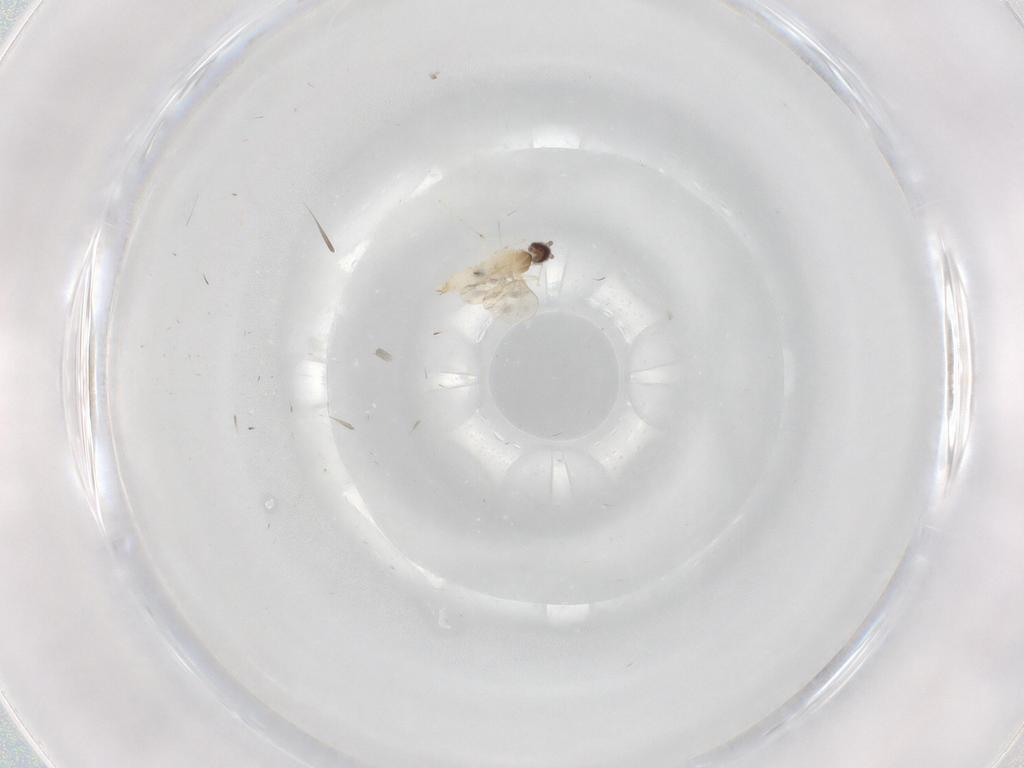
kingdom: Animalia
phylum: Arthropoda
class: Insecta
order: Diptera
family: Cecidomyiidae
